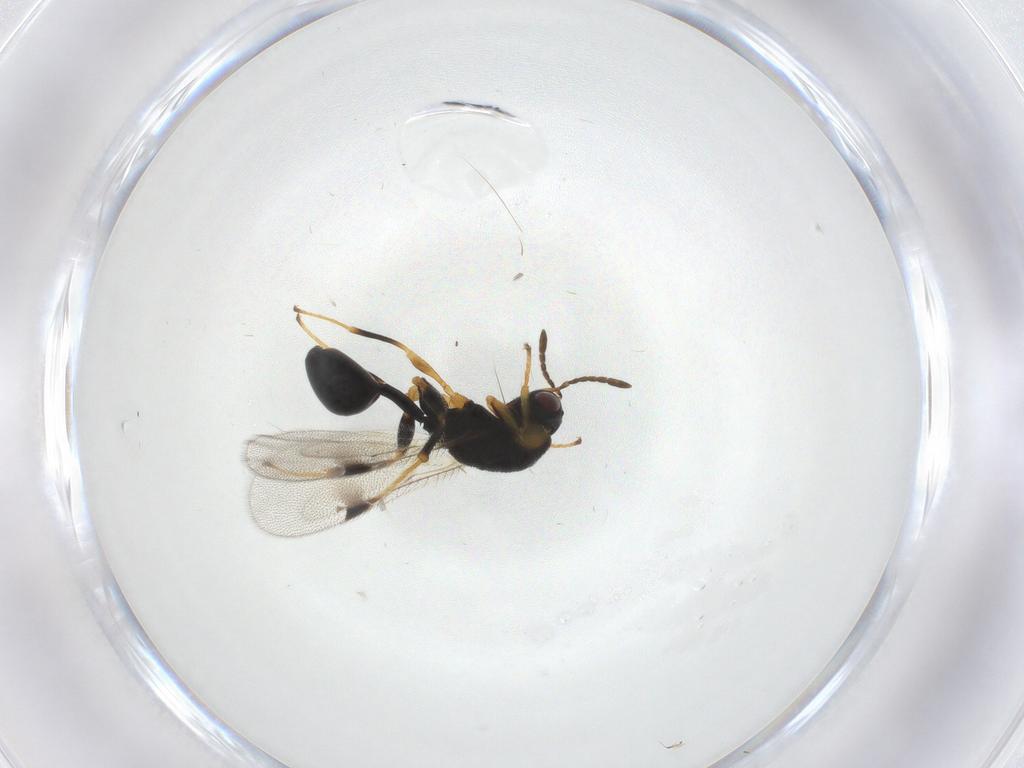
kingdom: Animalia
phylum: Arthropoda
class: Insecta
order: Hymenoptera
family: Eurytomidae
